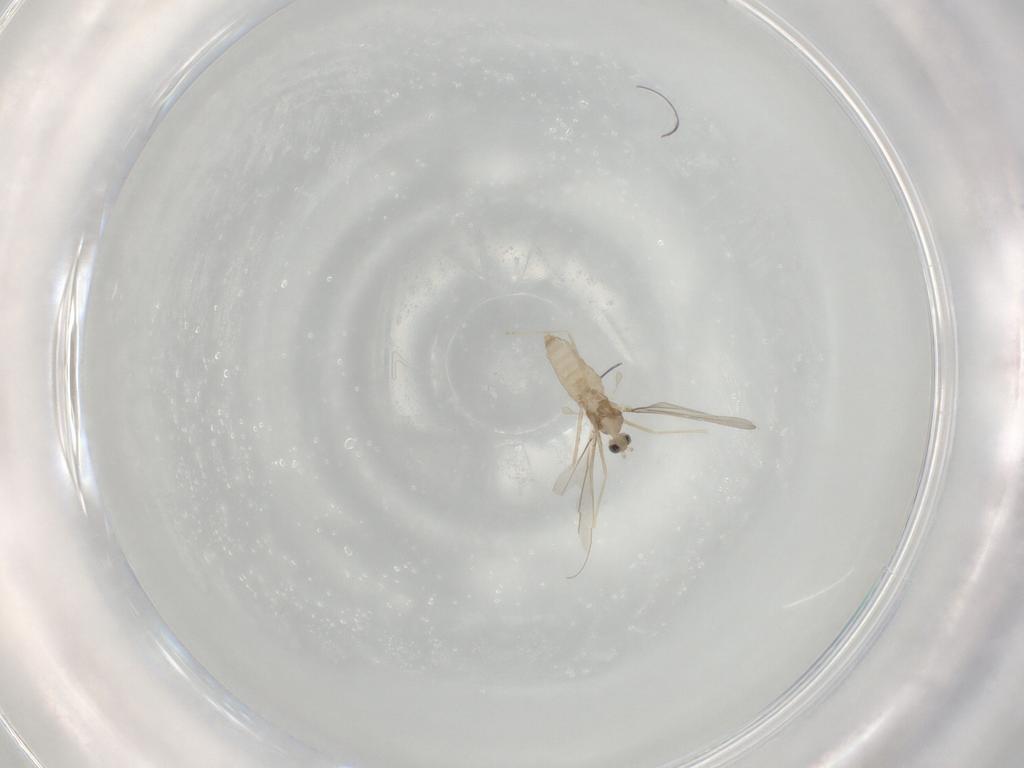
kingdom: Animalia
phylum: Arthropoda
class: Insecta
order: Diptera
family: Cecidomyiidae
